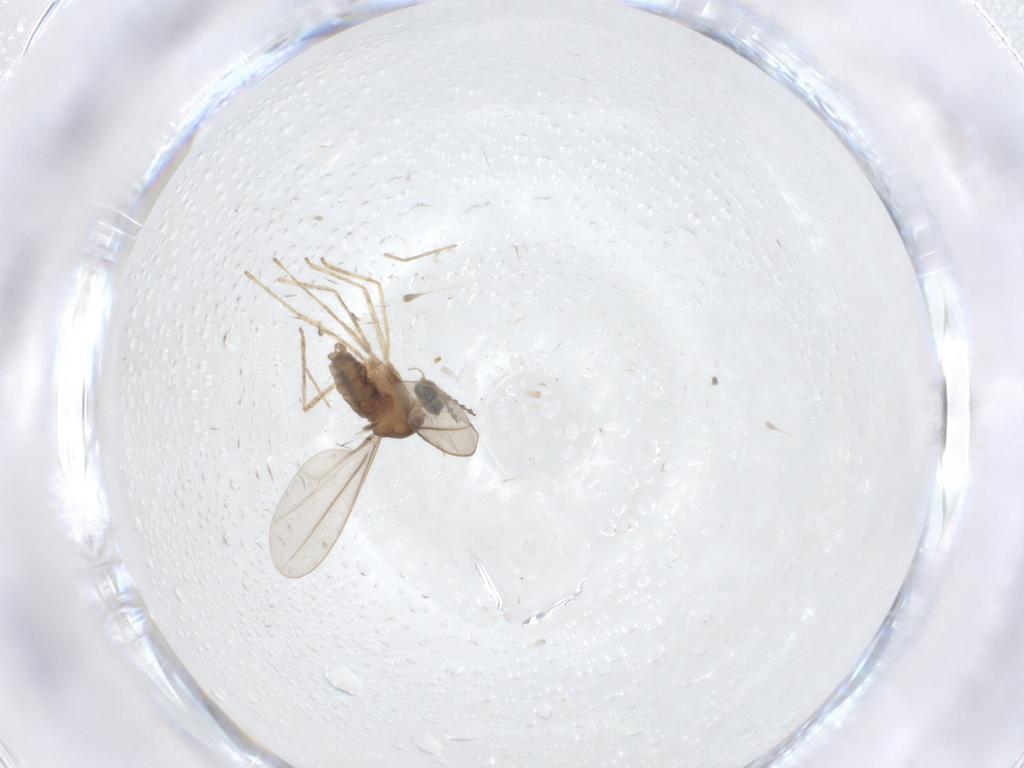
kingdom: Animalia
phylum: Arthropoda
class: Insecta
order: Diptera
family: Cecidomyiidae
